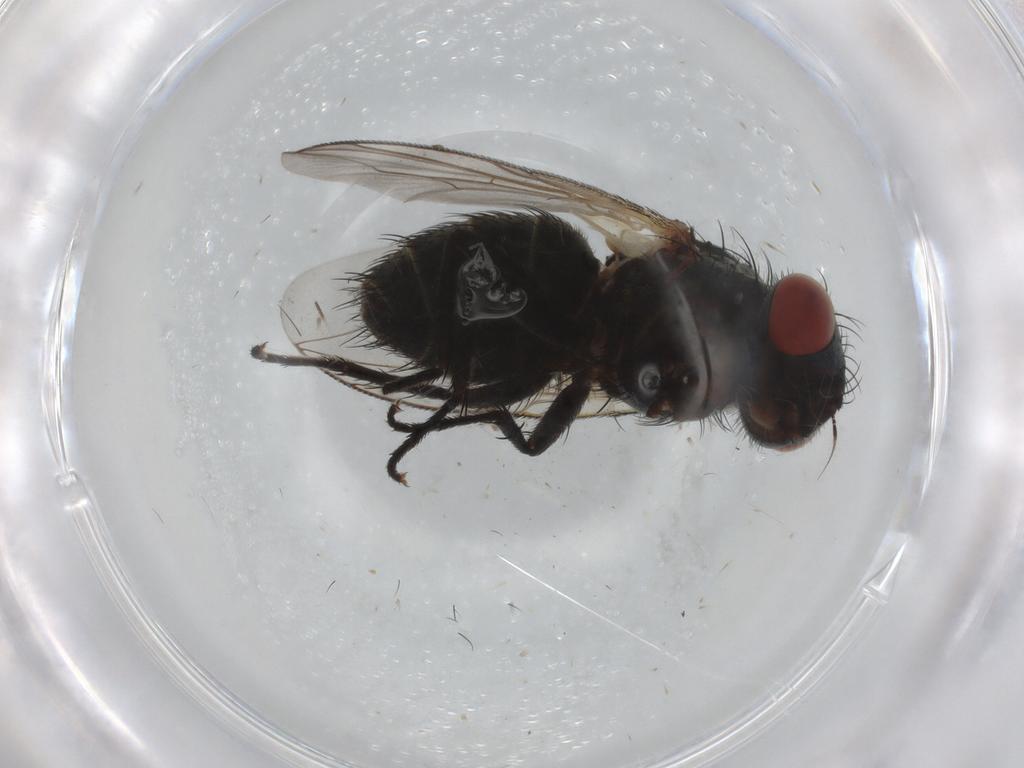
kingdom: Animalia
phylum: Arthropoda
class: Insecta
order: Diptera
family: Sarcophagidae
